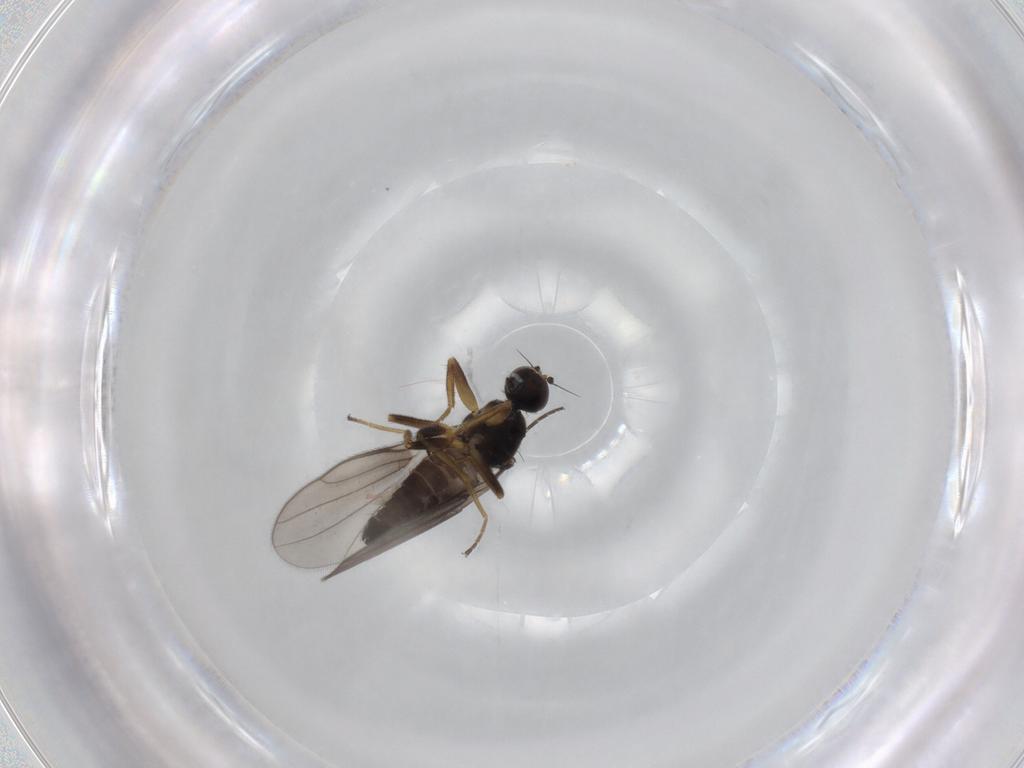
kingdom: Animalia
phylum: Arthropoda
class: Insecta
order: Diptera
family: Hybotidae
